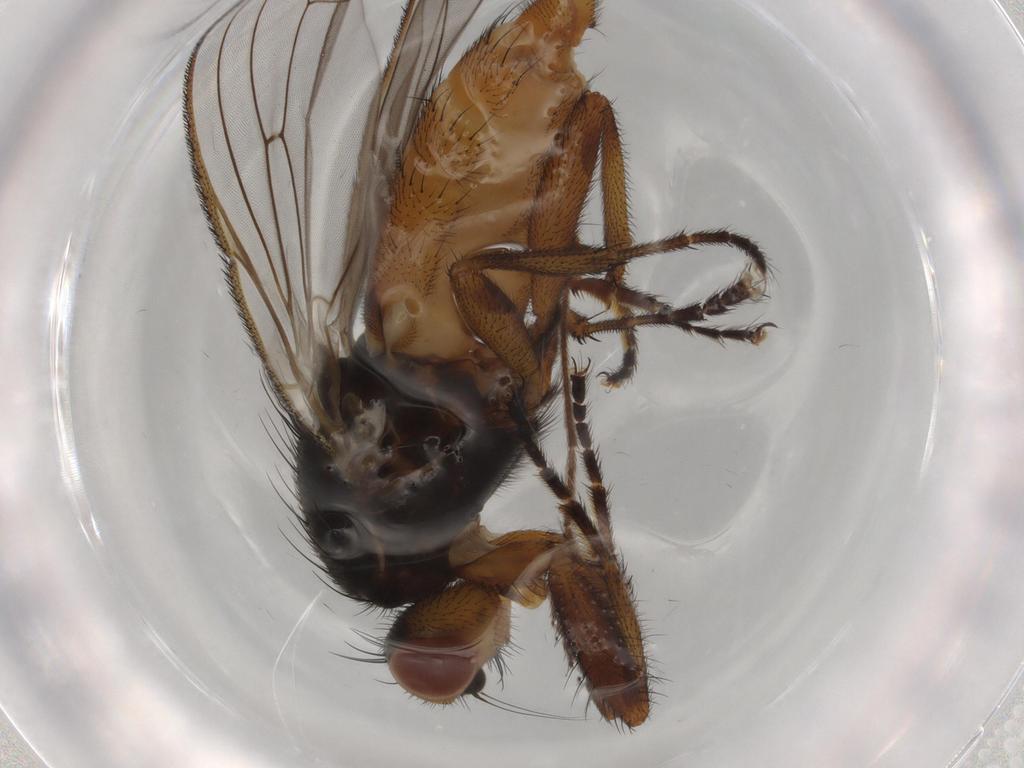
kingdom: Animalia
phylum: Arthropoda
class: Insecta
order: Diptera
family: Heleomyzidae
